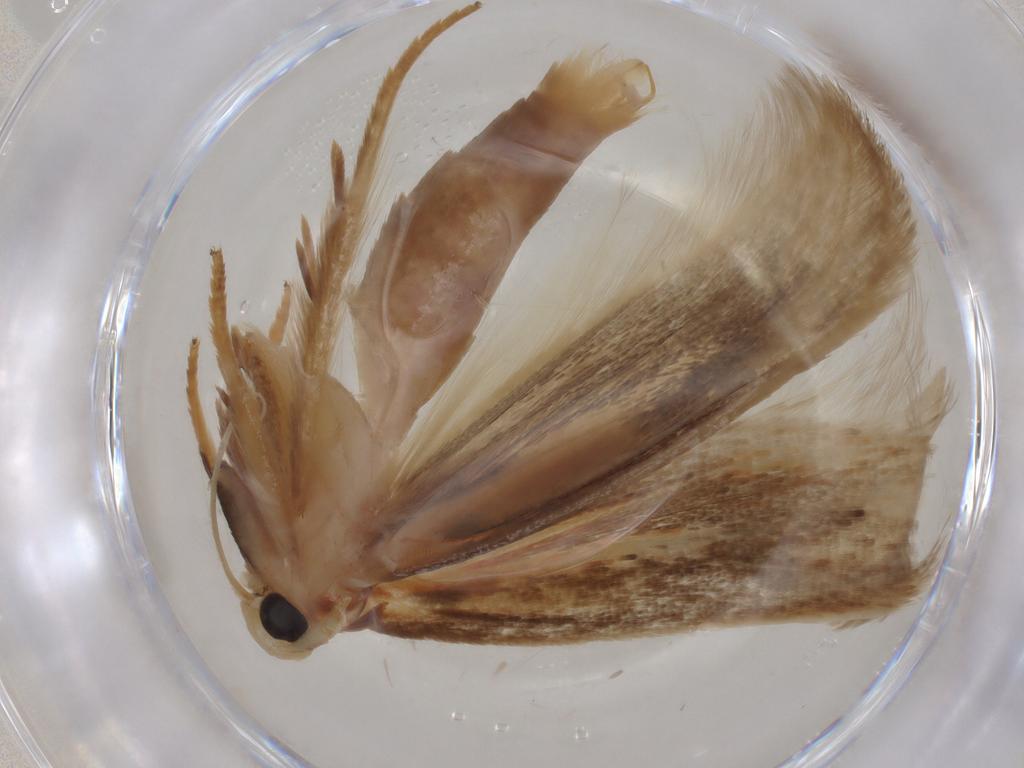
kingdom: Animalia
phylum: Arthropoda
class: Insecta
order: Lepidoptera
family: Geometridae
